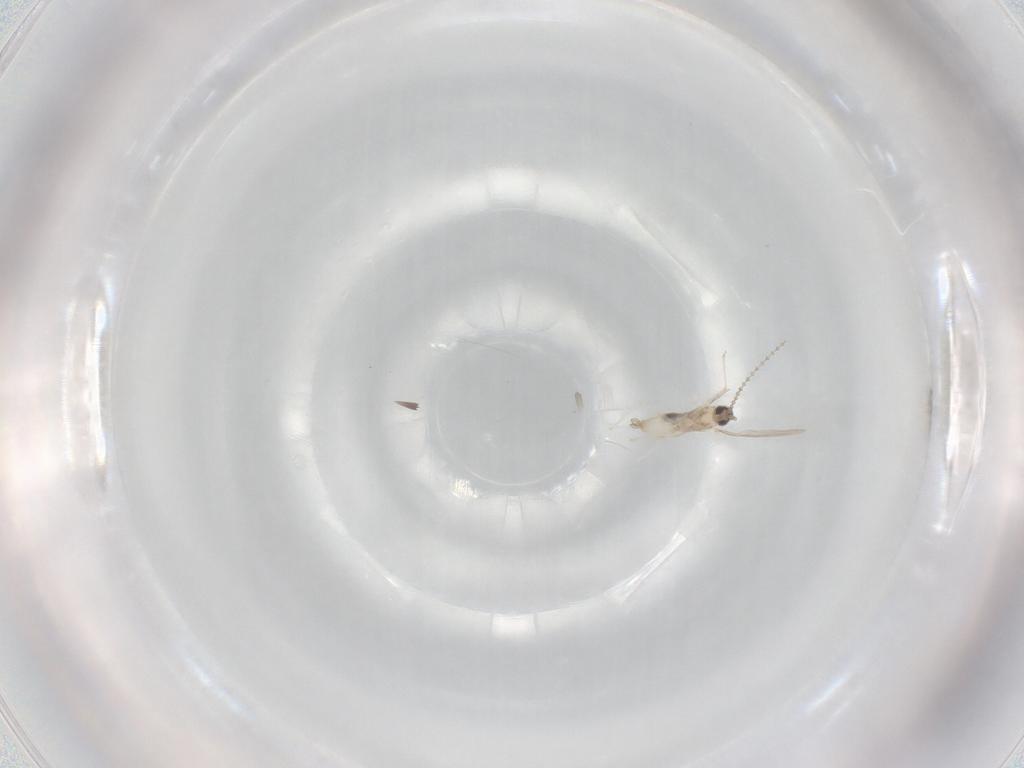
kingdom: Animalia
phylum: Arthropoda
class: Insecta
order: Diptera
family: Cecidomyiidae
